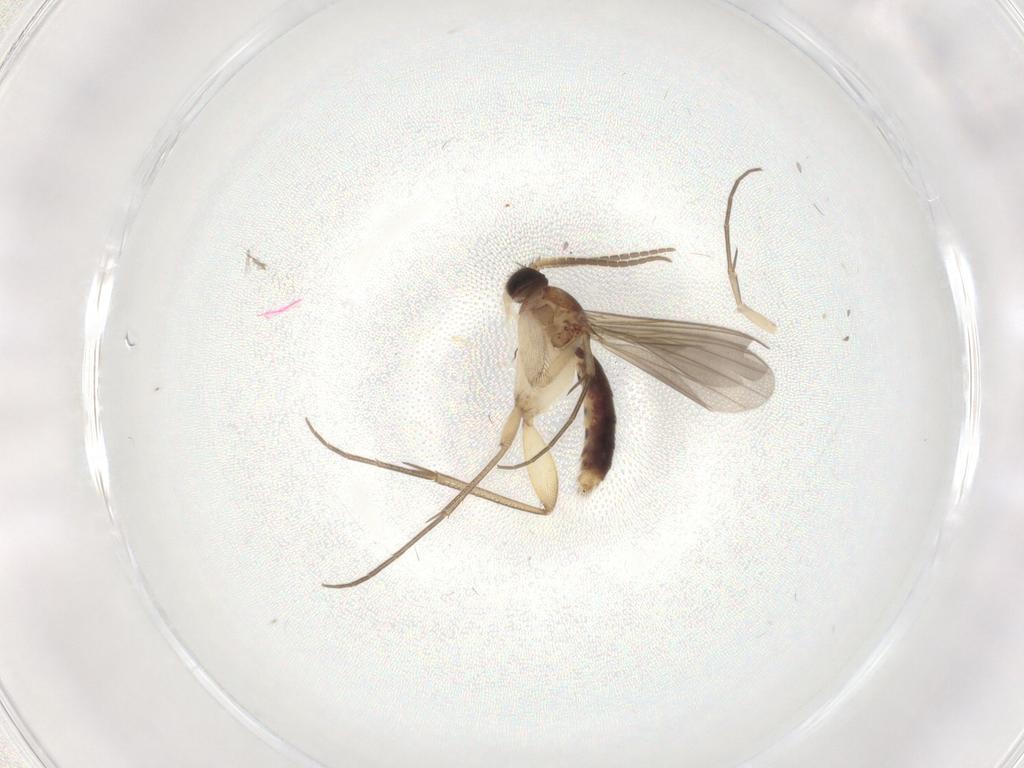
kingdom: Animalia
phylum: Arthropoda
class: Insecta
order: Diptera
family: Mycetophilidae
